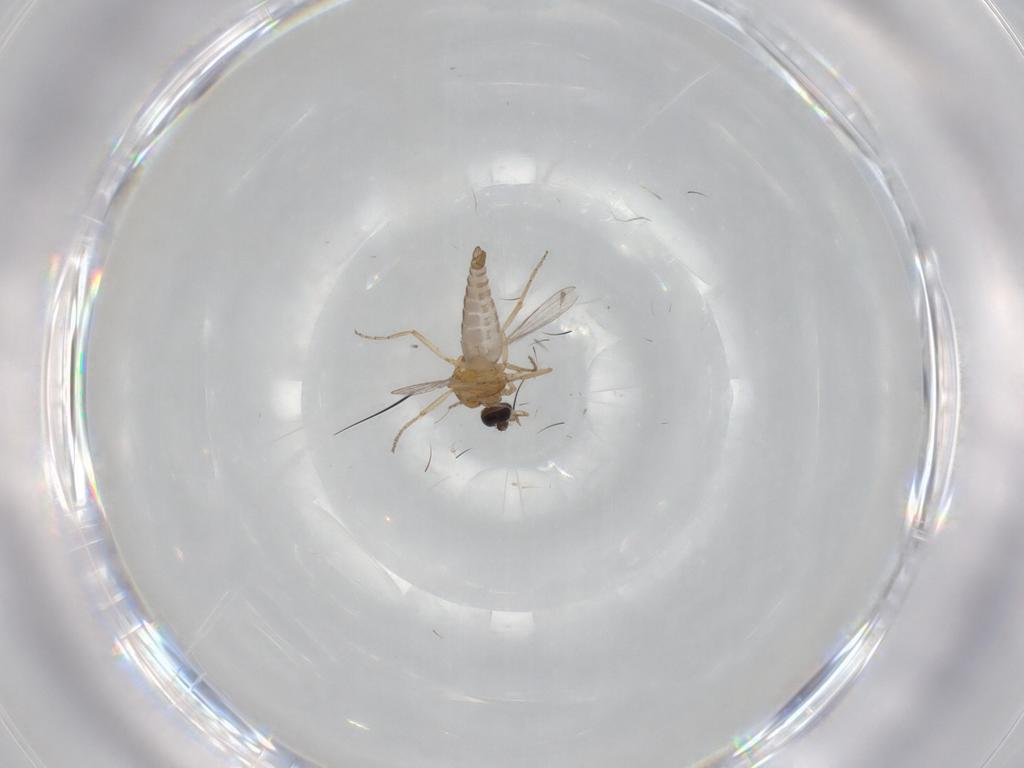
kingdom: Animalia
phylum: Arthropoda
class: Insecta
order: Diptera
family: Ceratopogonidae
